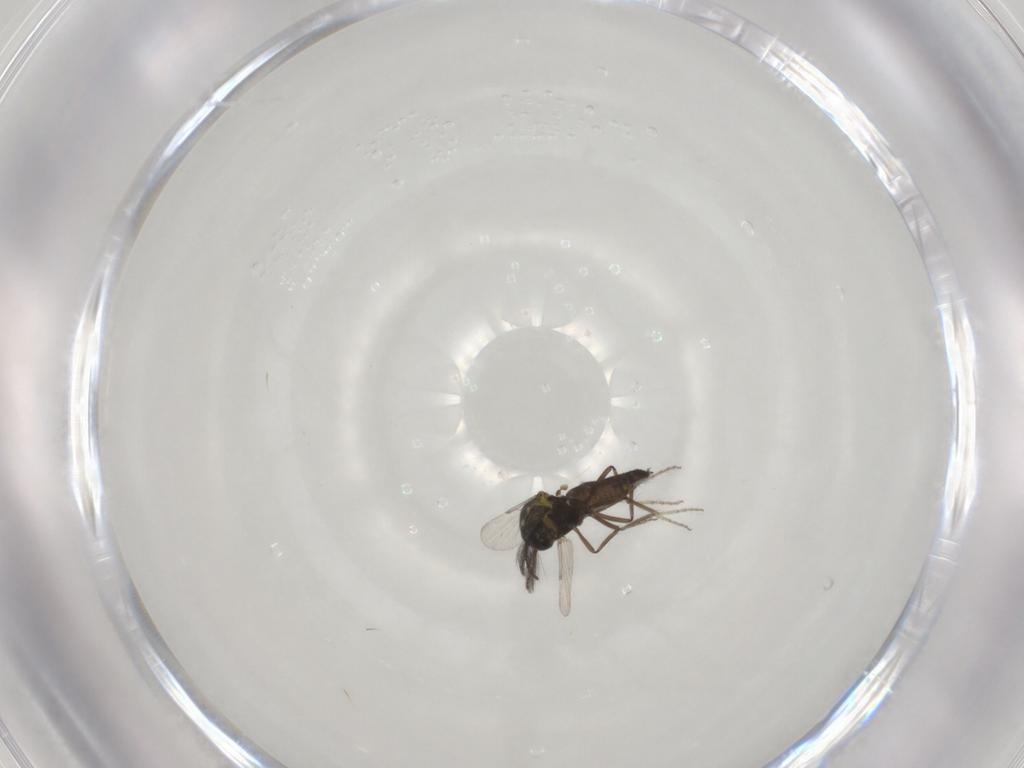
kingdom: Animalia
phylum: Arthropoda
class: Insecta
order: Diptera
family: Ceratopogonidae
